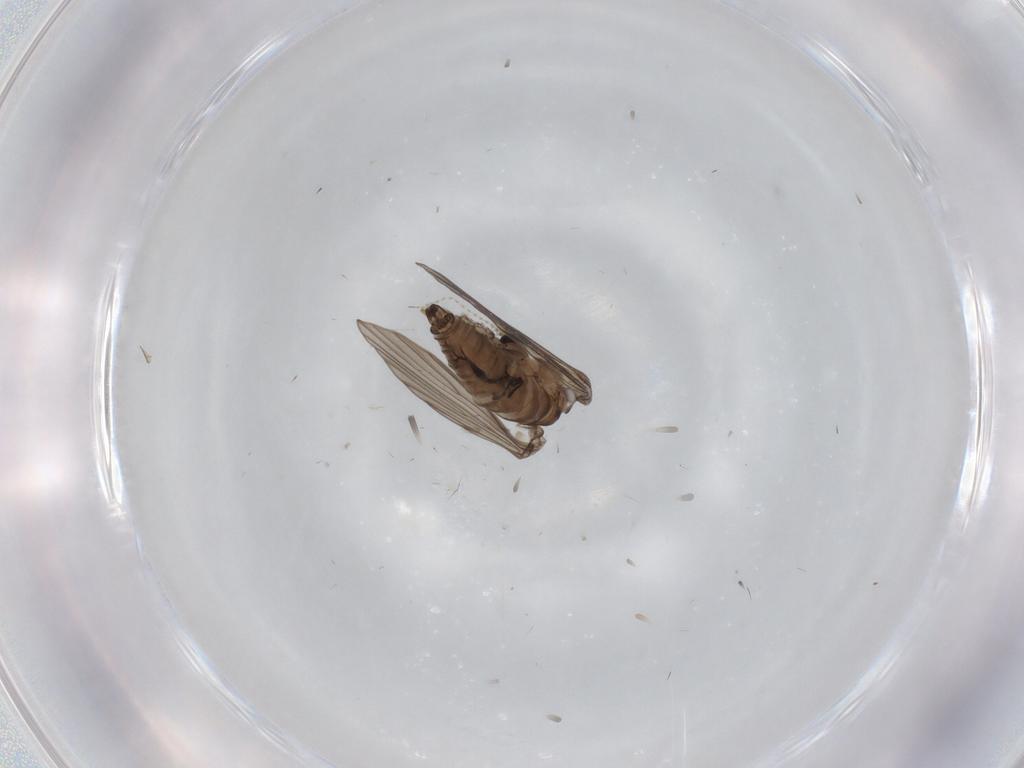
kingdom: Animalia
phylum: Arthropoda
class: Insecta
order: Diptera
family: Psychodidae
